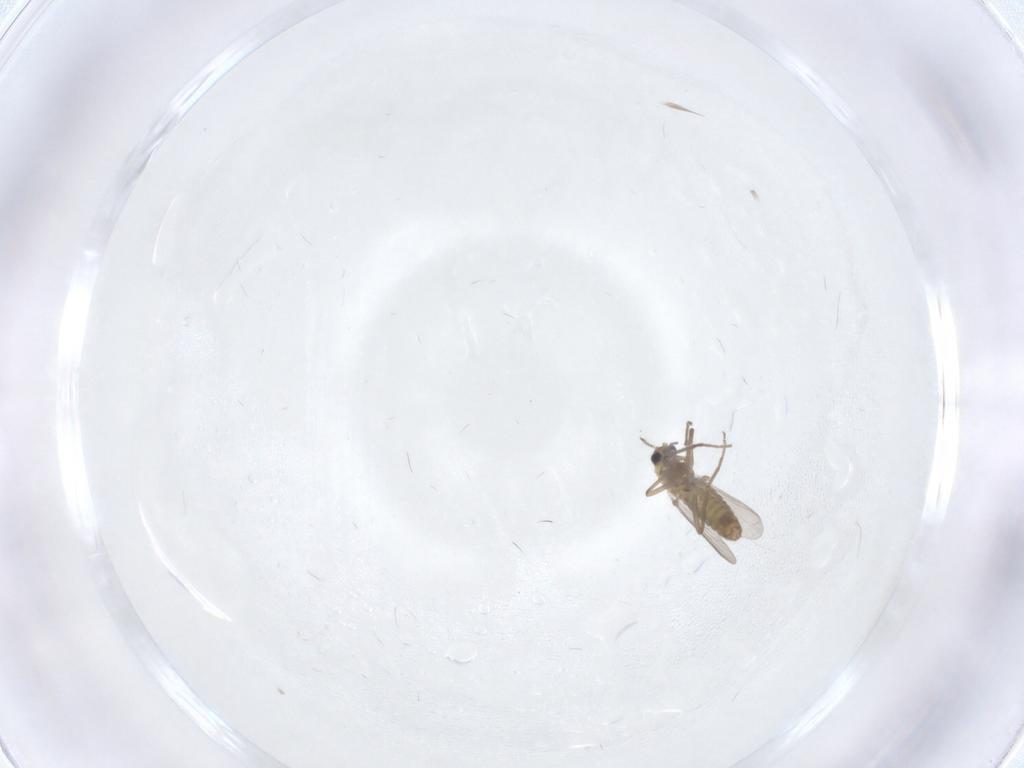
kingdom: Animalia
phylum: Arthropoda
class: Insecta
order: Diptera
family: Chironomidae
